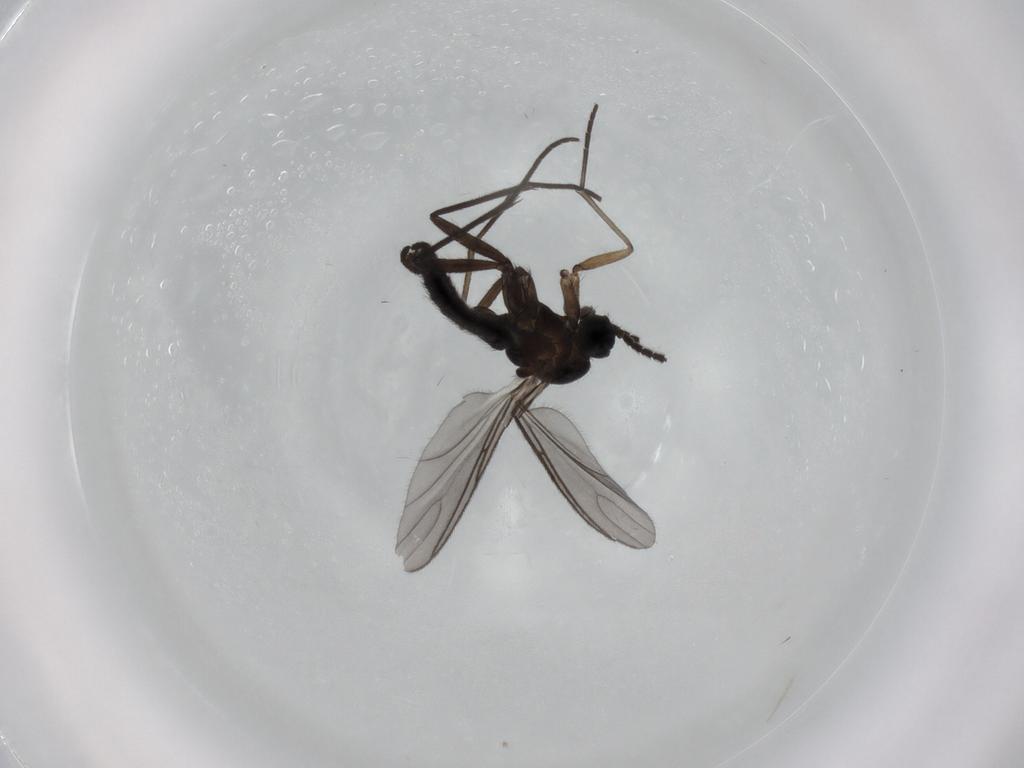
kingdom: Animalia
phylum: Arthropoda
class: Insecta
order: Diptera
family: Sciaridae
